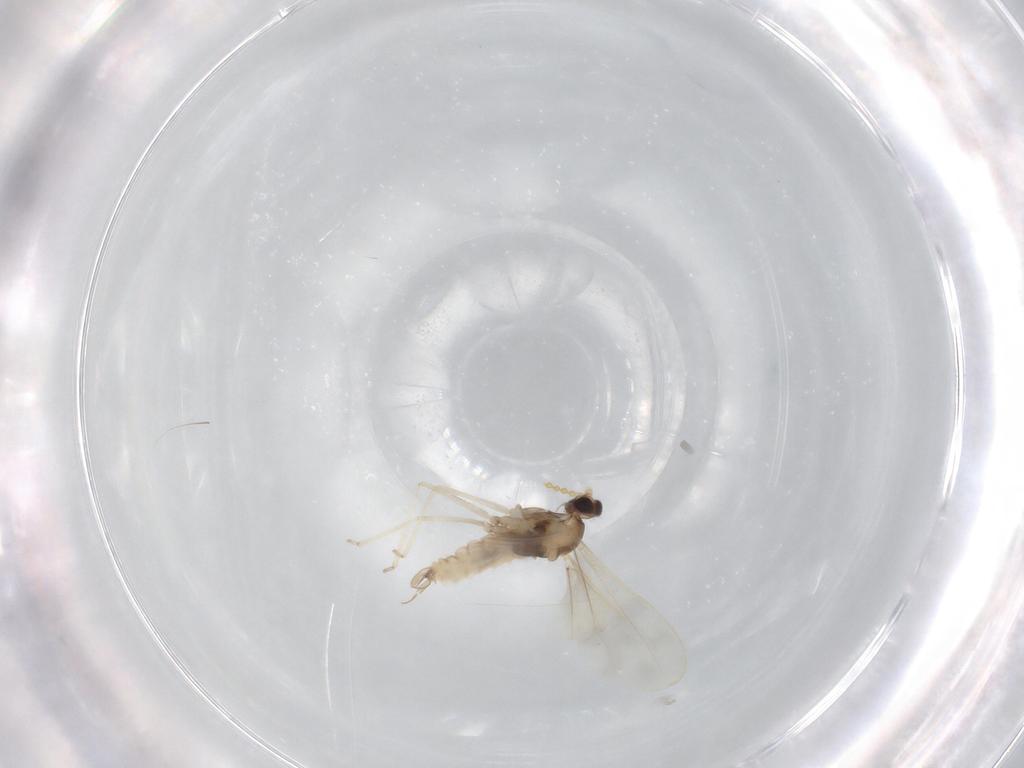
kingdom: Animalia
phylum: Arthropoda
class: Insecta
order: Diptera
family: Cecidomyiidae
